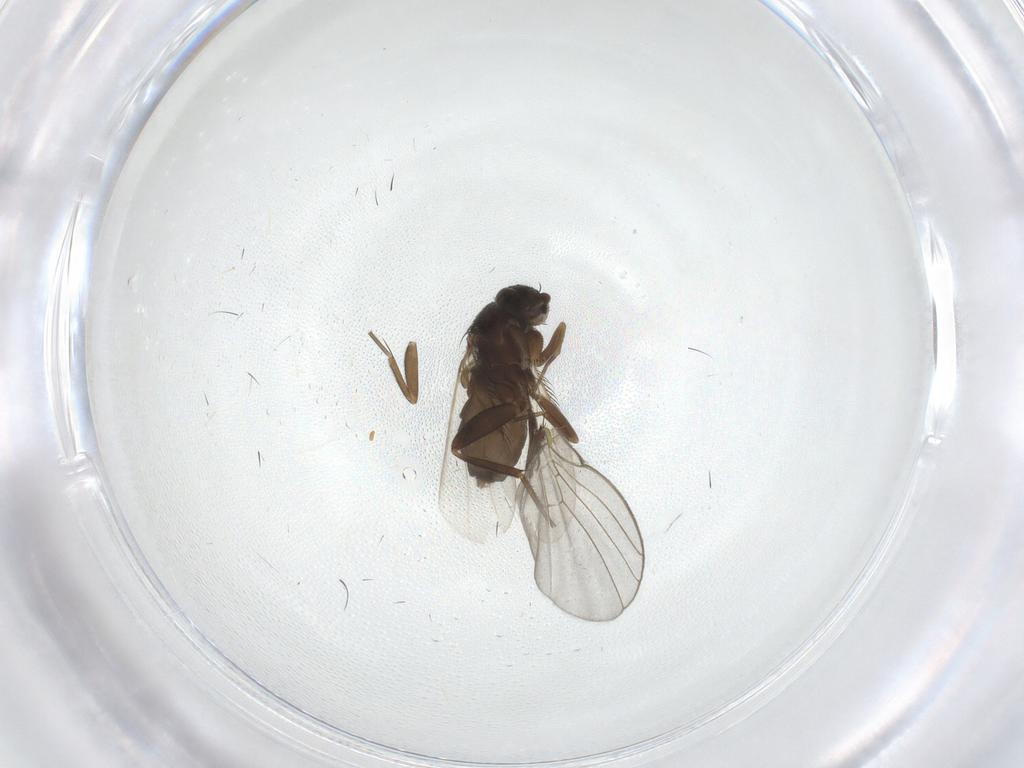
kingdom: Animalia
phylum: Arthropoda
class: Insecta
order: Diptera
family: Phoridae
